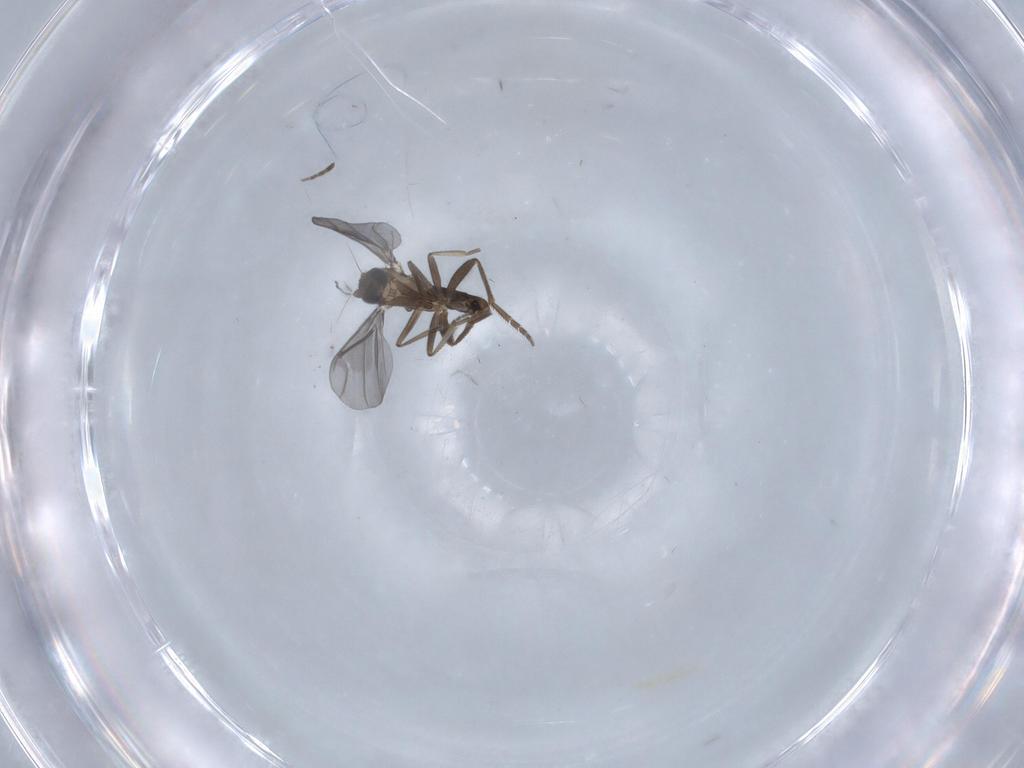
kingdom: Animalia
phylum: Arthropoda
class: Insecta
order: Diptera
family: Phoridae
